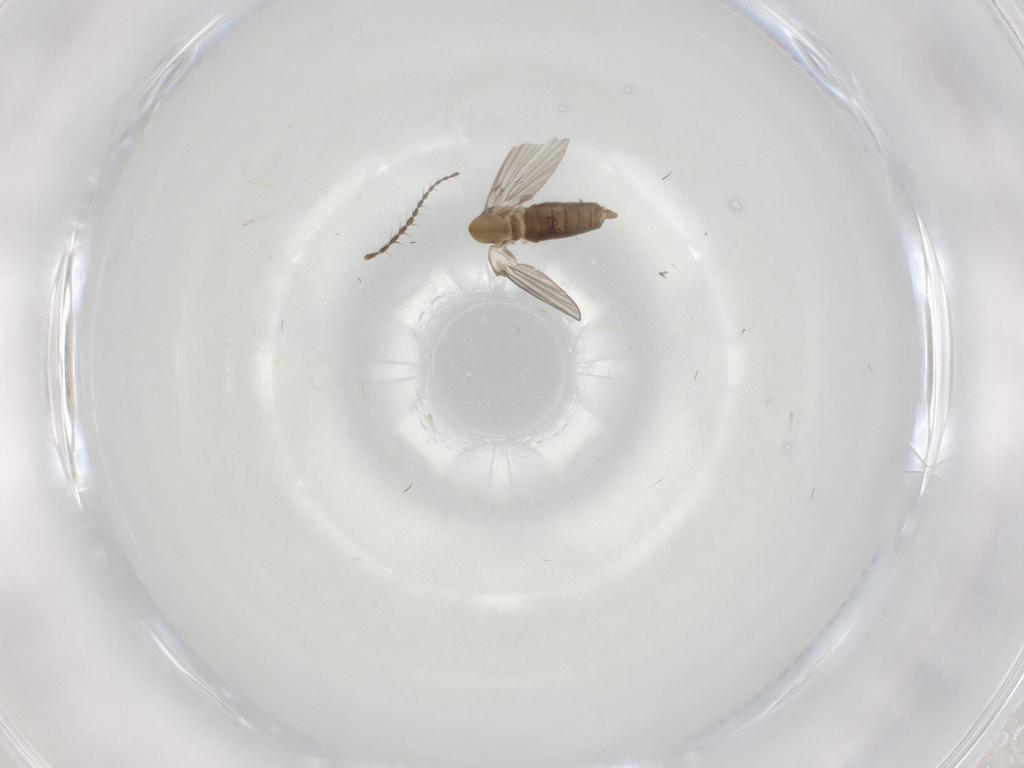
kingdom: Animalia
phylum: Arthropoda
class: Insecta
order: Diptera
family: Limoniidae
